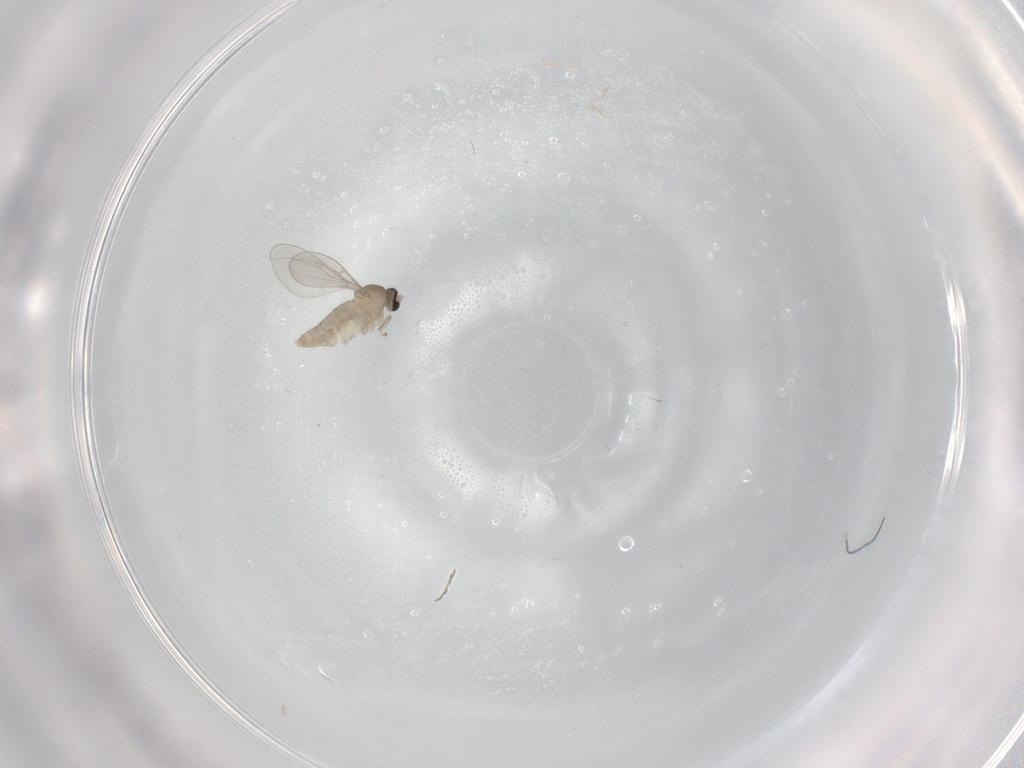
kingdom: Animalia
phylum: Arthropoda
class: Insecta
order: Diptera
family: Cecidomyiidae
